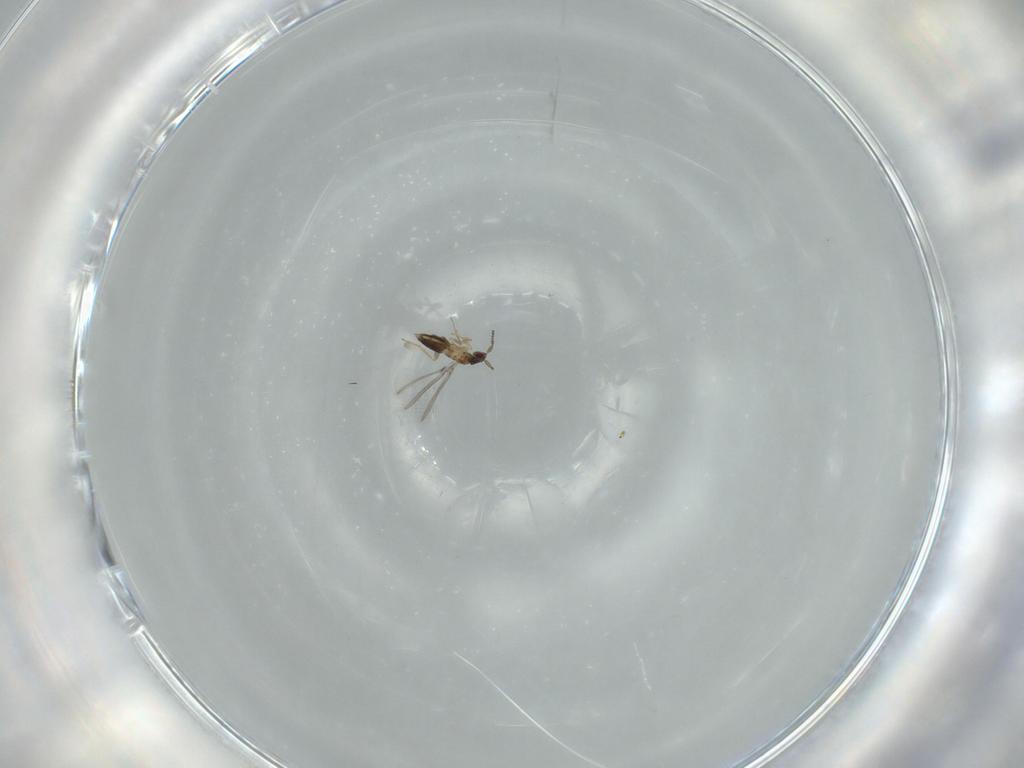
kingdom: Animalia
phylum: Arthropoda
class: Insecta
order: Hymenoptera
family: Mymaridae
